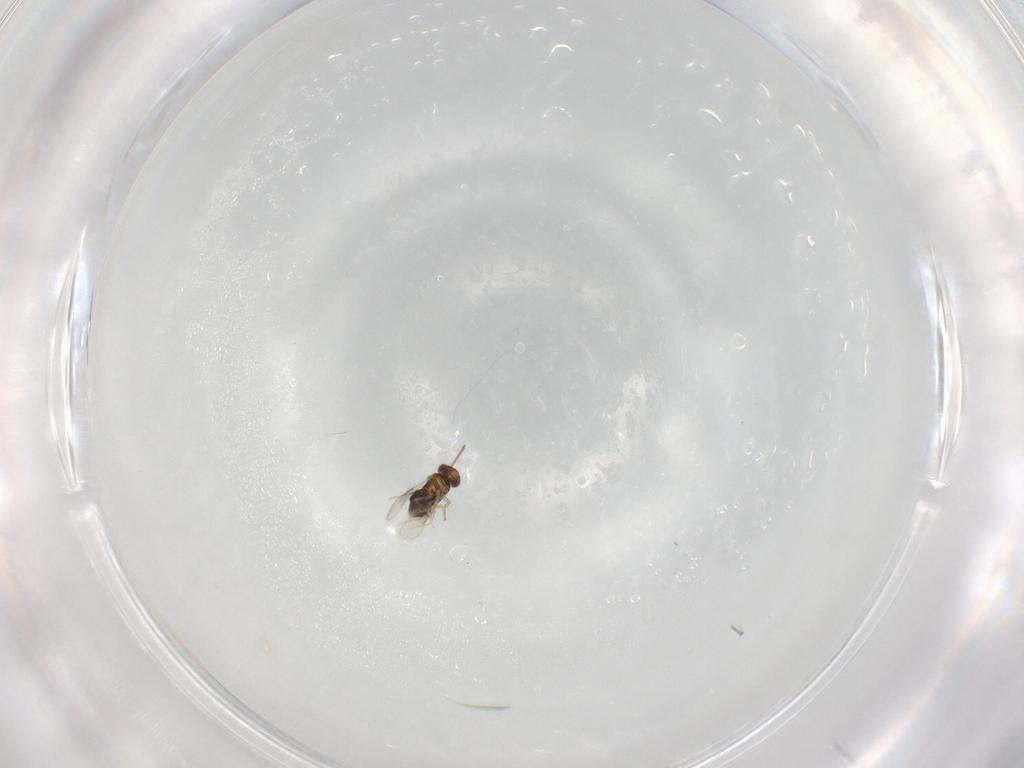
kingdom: Animalia
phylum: Arthropoda
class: Insecta
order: Hymenoptera
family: Aphelinidae
